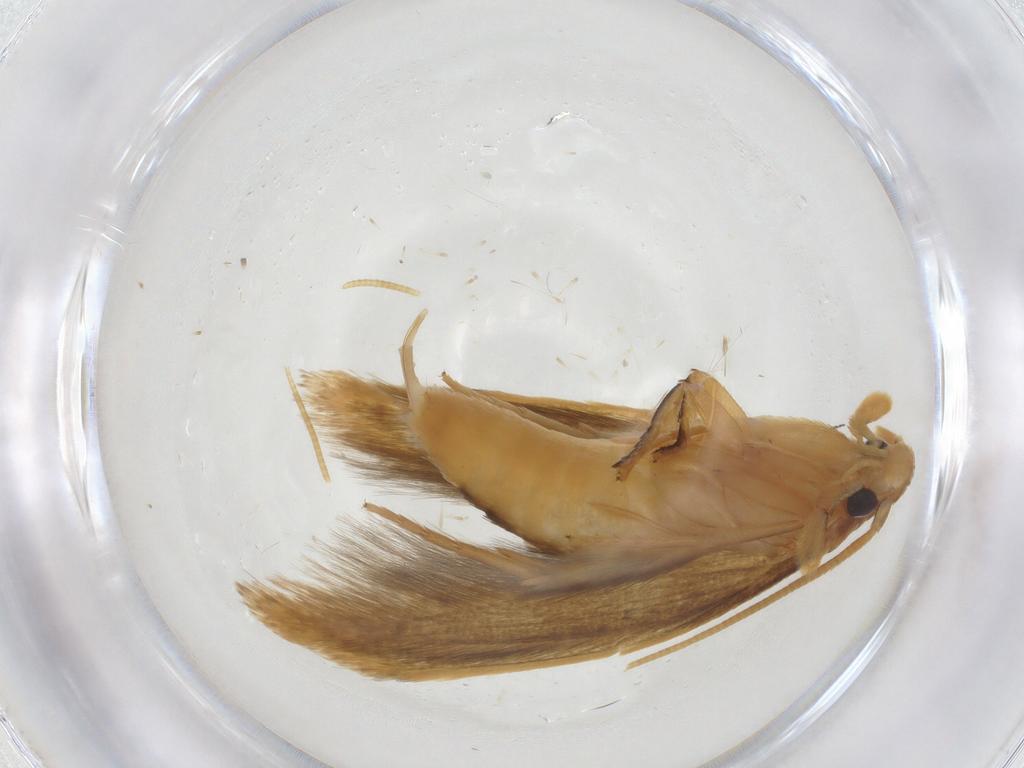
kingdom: Animalia
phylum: Arthropoda
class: Insecta
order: Lepidoptera
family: Tineidae
